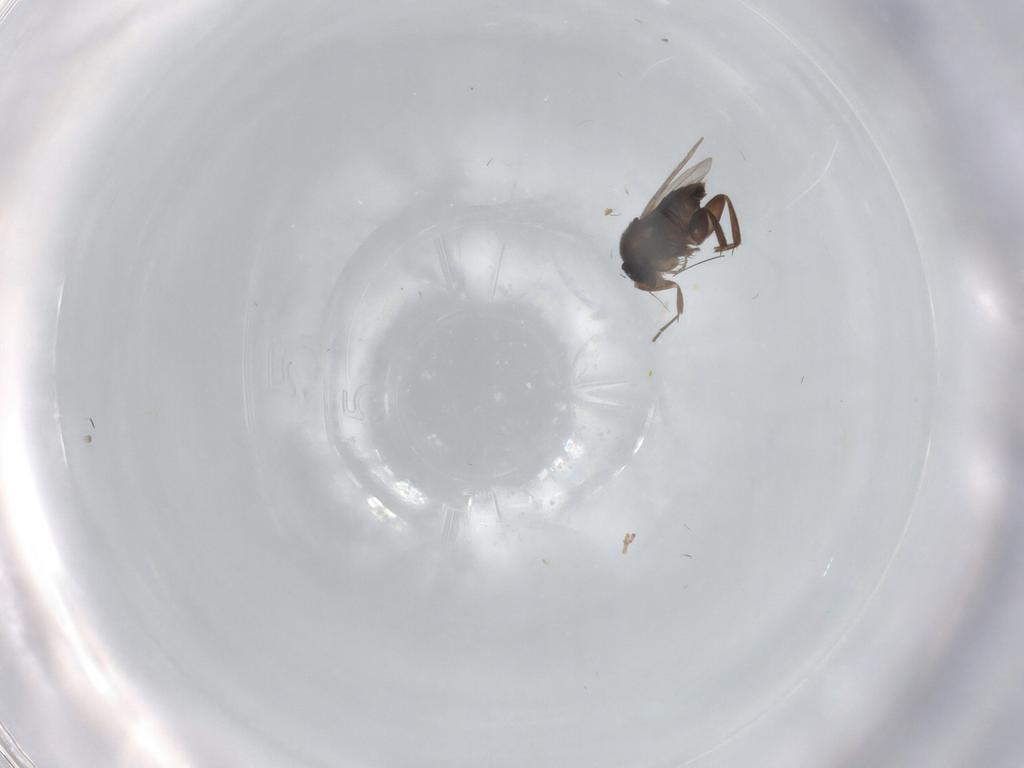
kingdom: Animalia
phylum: Arthropoda
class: Insecta
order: Diptera
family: Phoridae
